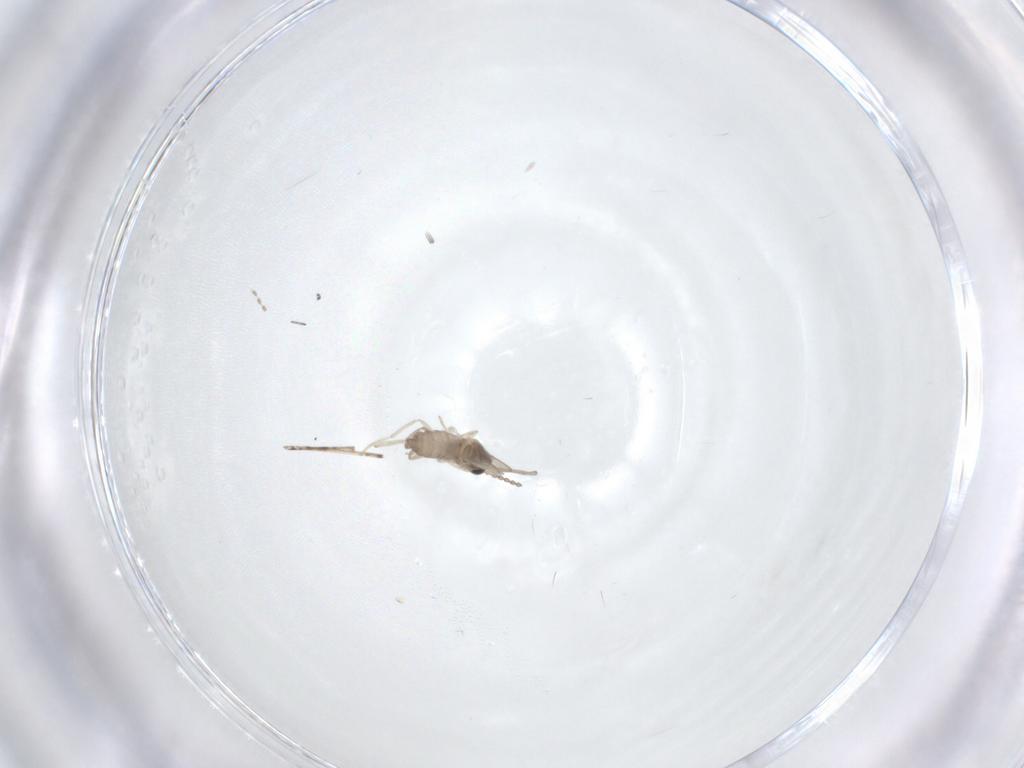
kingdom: Animalia
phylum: Arthropoda
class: Insecta
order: Diptera
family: Cecidomyiidae
